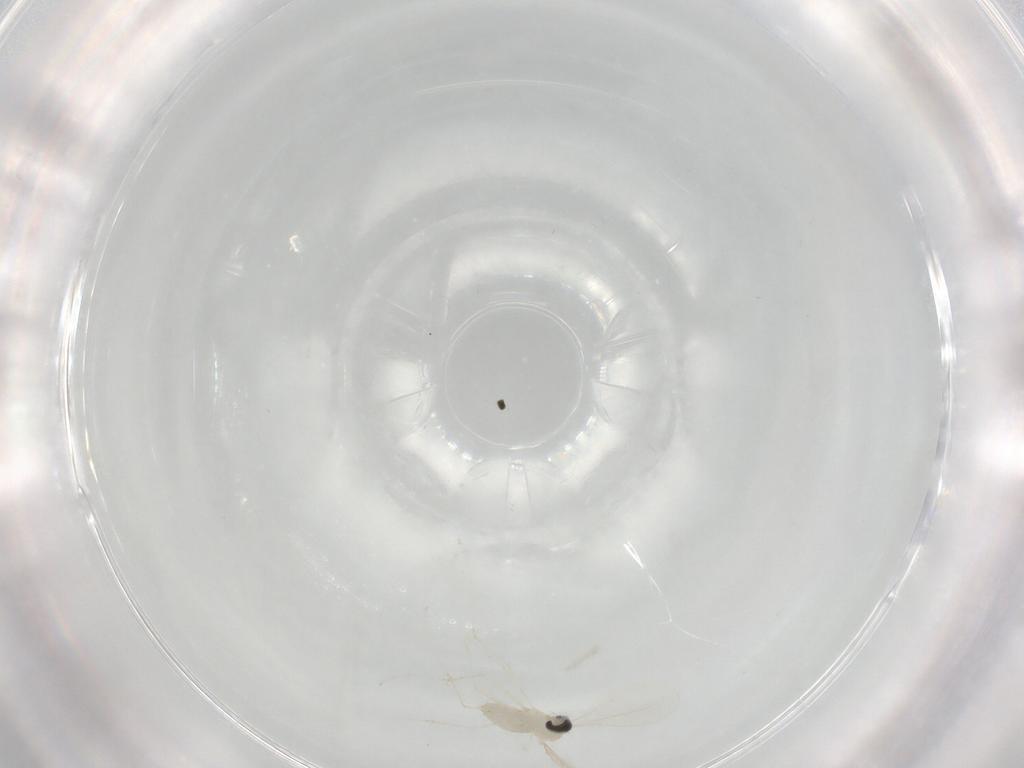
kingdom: Animalia
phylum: Arthropoda
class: Insecta
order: Diptera
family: Cecidomyiidae
